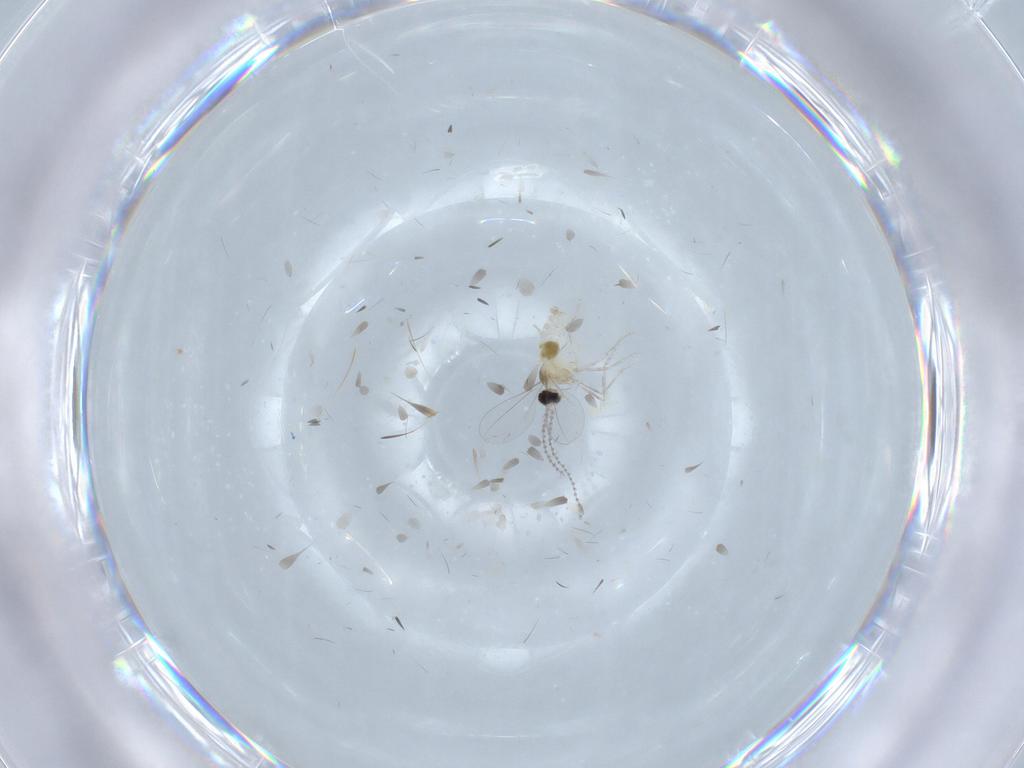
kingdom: Animalia
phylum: Arthropoda
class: Insecta
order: Diptera
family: Cecidomyiidae
